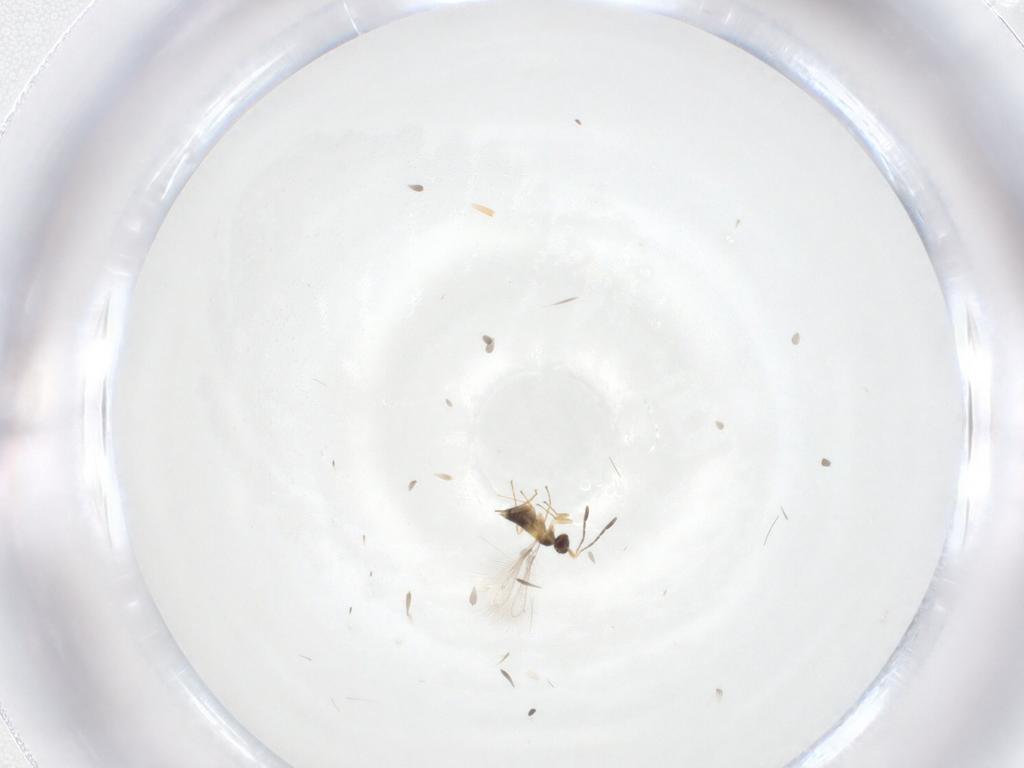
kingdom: Animalia
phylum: Arthropoda
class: Insecta
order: Hymenoptera
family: Mymaridae
